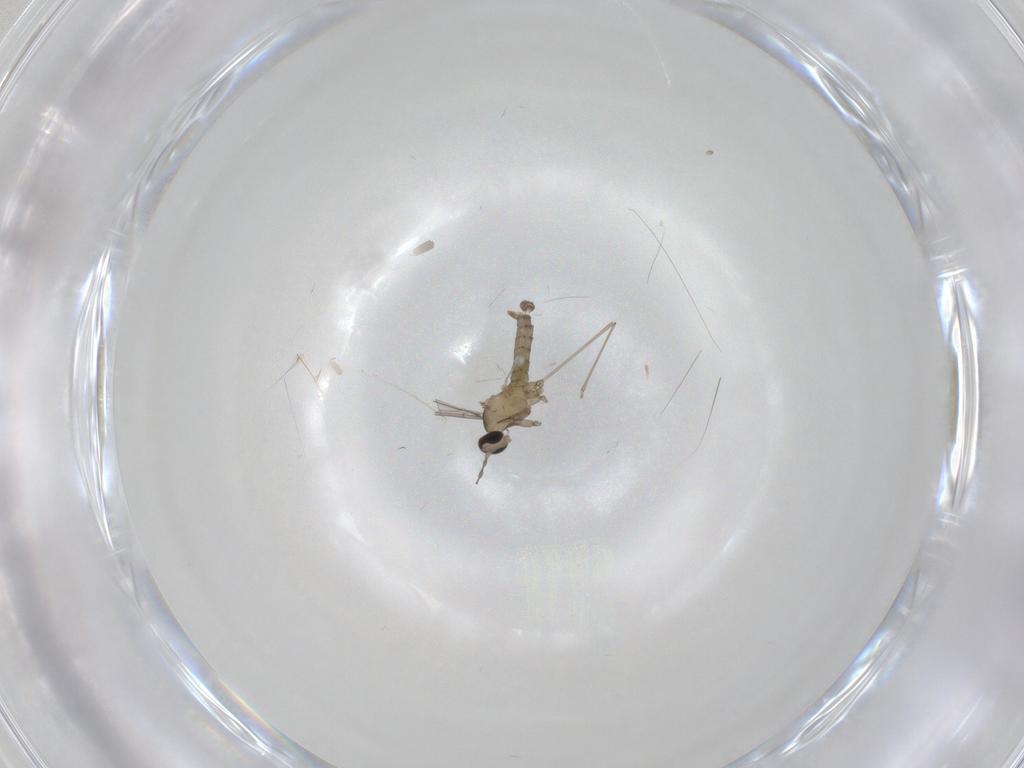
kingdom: Animalia
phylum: Arthropoda
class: Insecta
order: Diptera
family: Cecidomyiidae
